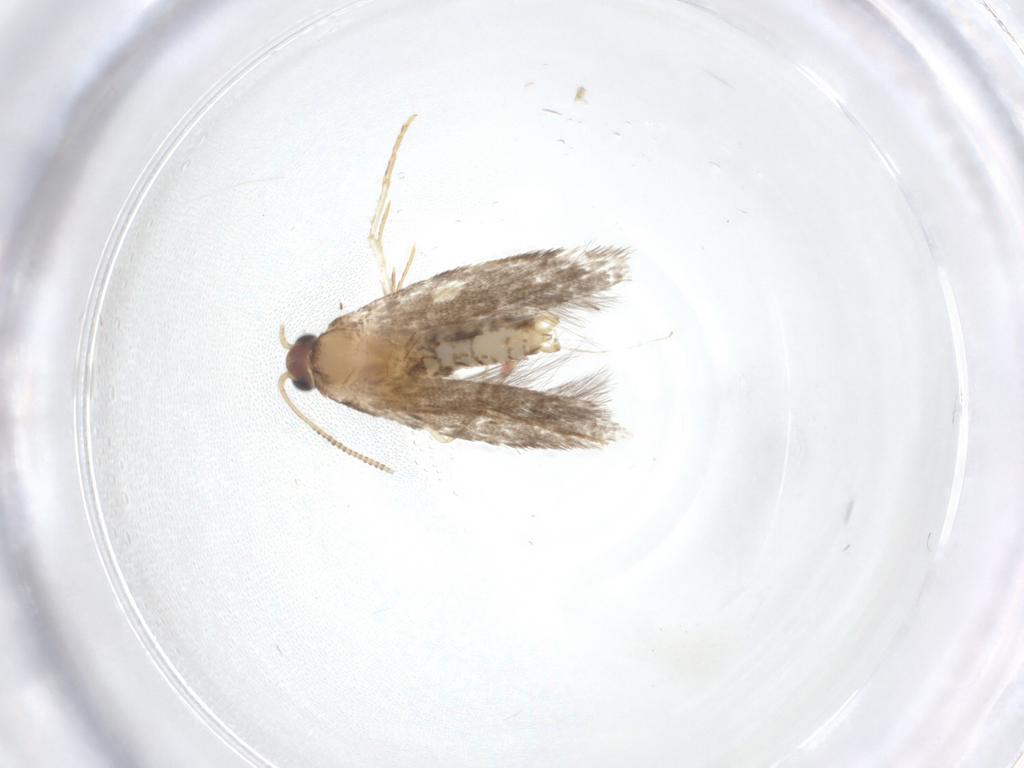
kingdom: Animalia
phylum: Arthropoda
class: Insecta
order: Lepidoptera
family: Meessiidae
